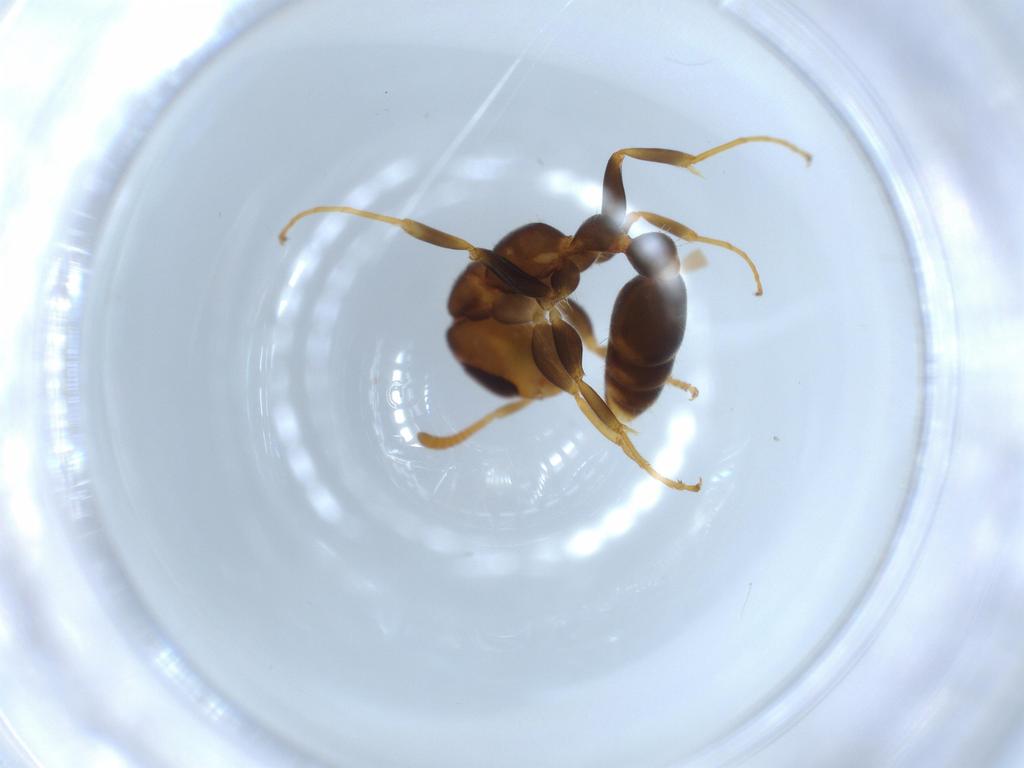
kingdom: Animalia
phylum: Arthropoda
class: Insecta
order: Hymenoptera
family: Formicidae
